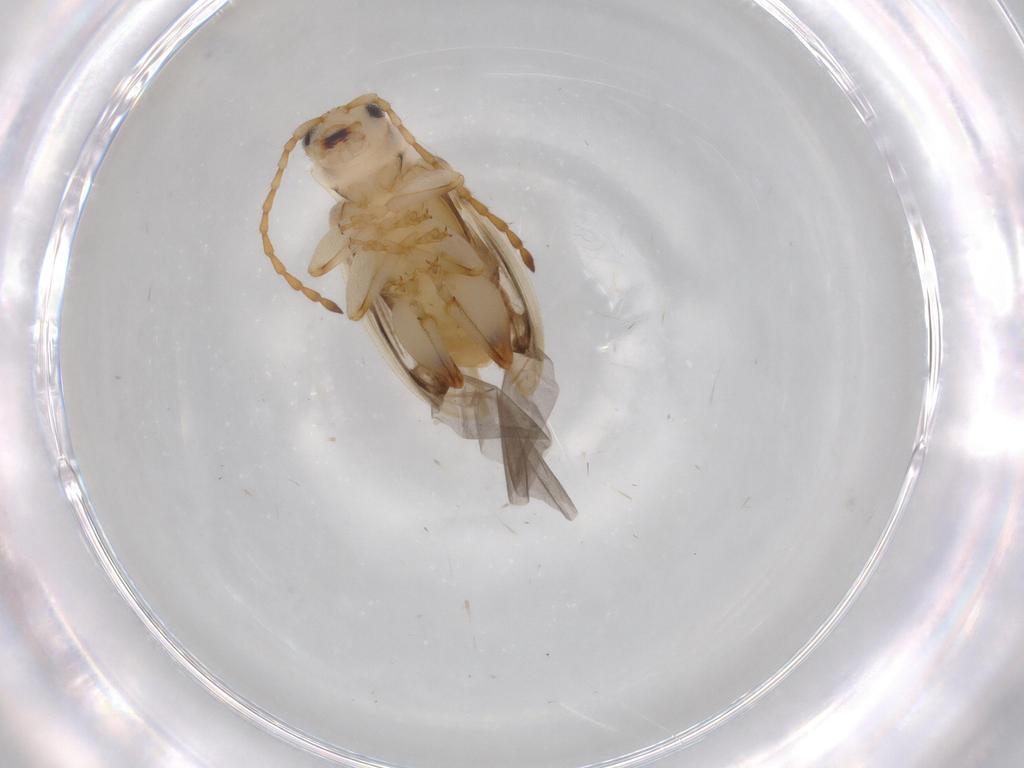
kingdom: Animalia
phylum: Arthropoda
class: Insecta
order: Coleoptera
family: Chrysomelidae
